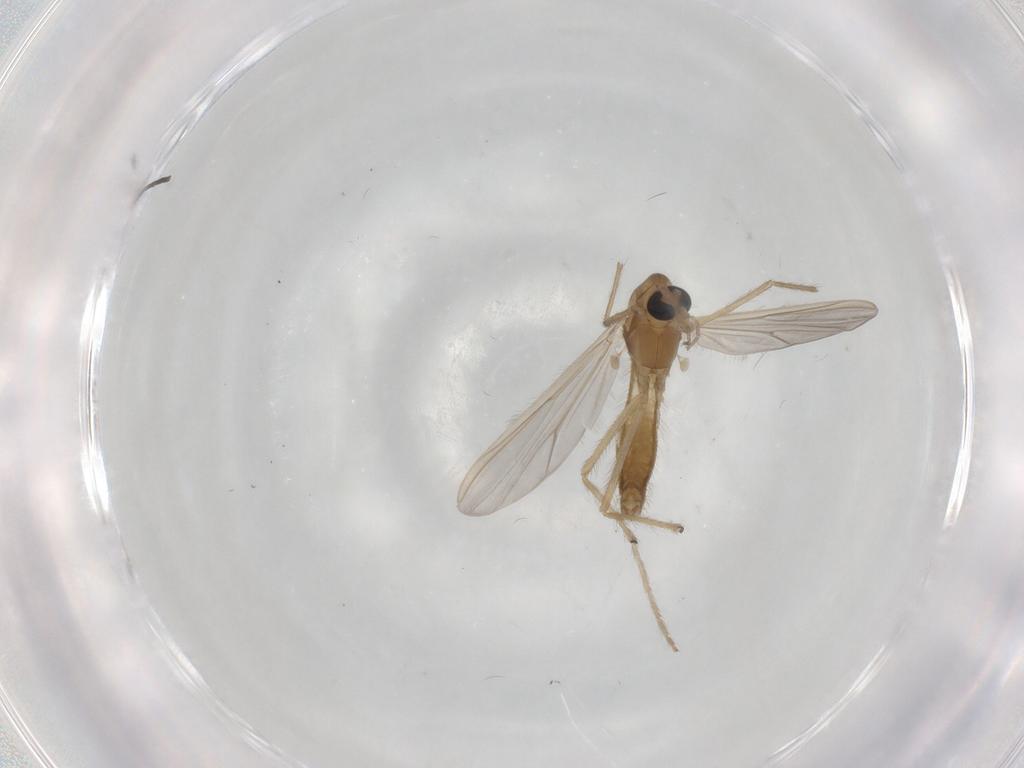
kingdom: Animalia
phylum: Arthropoda
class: Insecta
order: Diptera
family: Chironomidae
